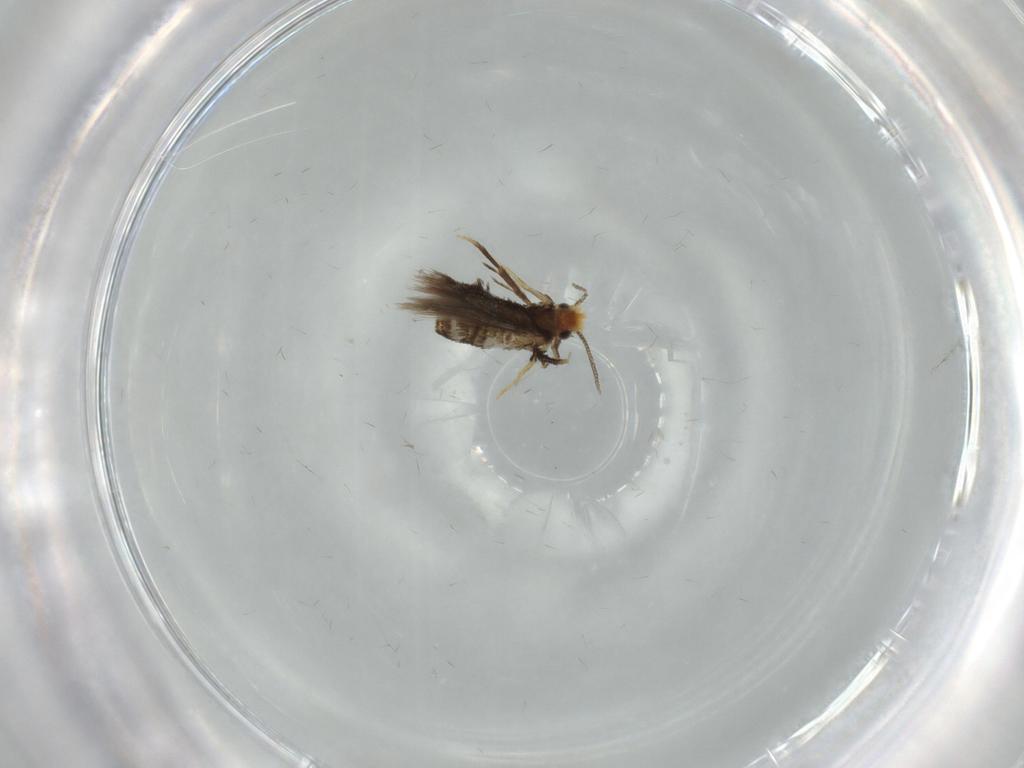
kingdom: Animalia
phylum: Arthropoda
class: Insecta
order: Lepidoptera
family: Nepticulidae
